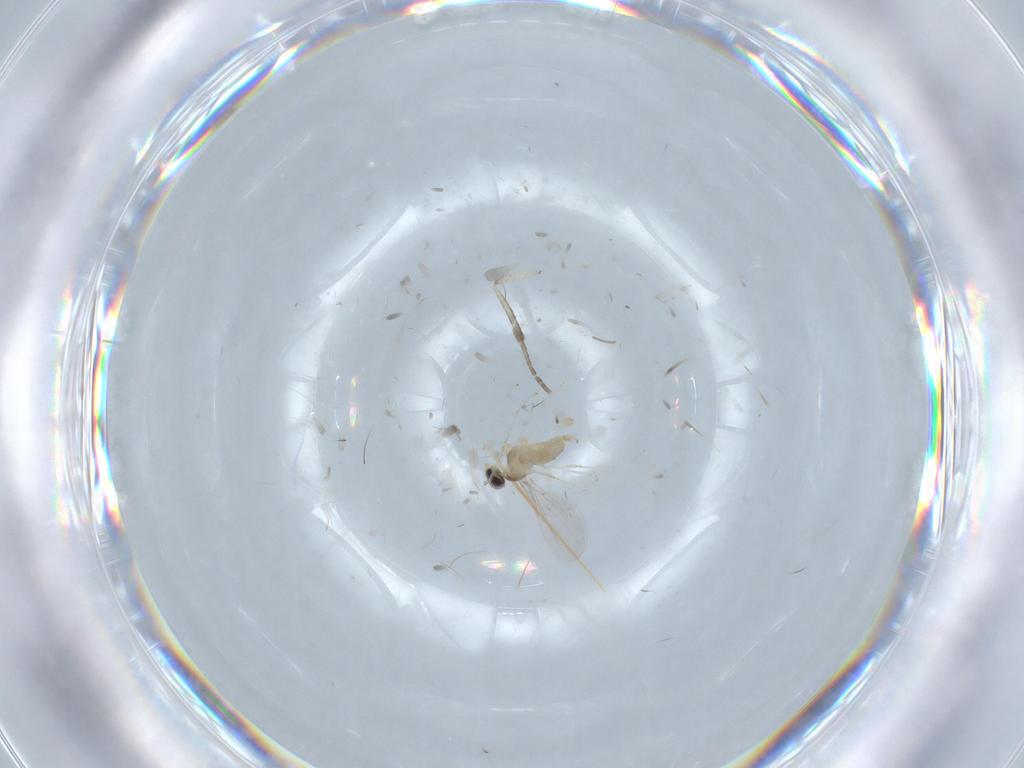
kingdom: Animalia
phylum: Arthropoda
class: Insecta
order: Diptera
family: Cecidomyiidae
